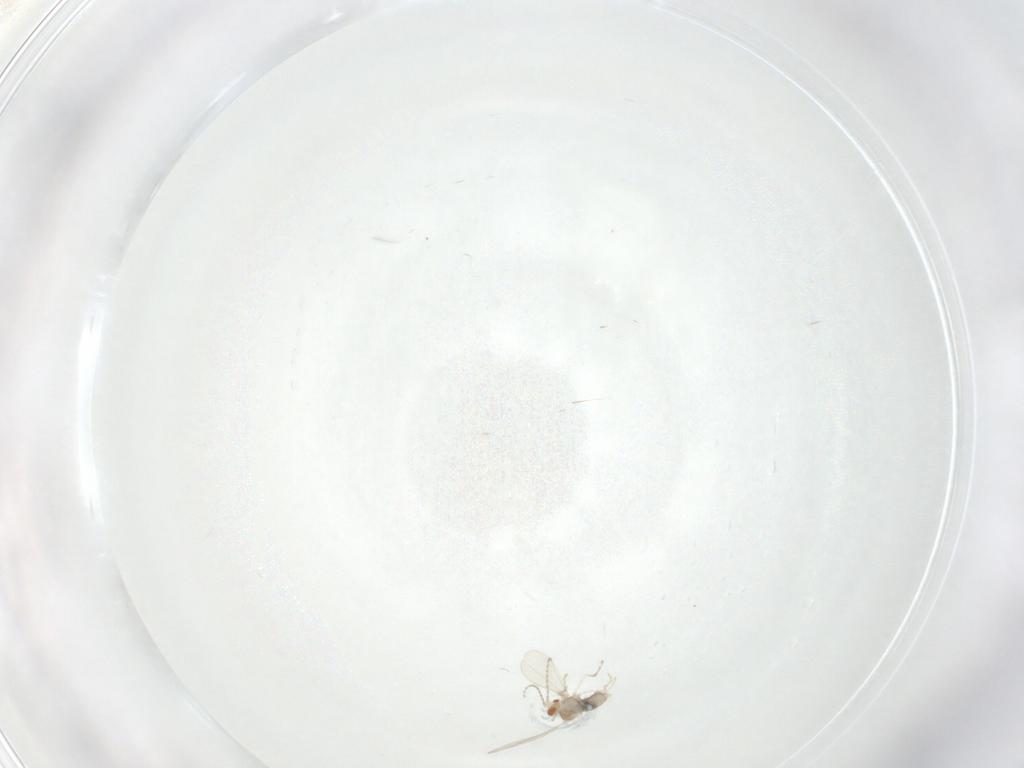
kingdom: Animalia
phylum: Arthropoda
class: Insecta
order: Diptera
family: Cecidomyiidae
